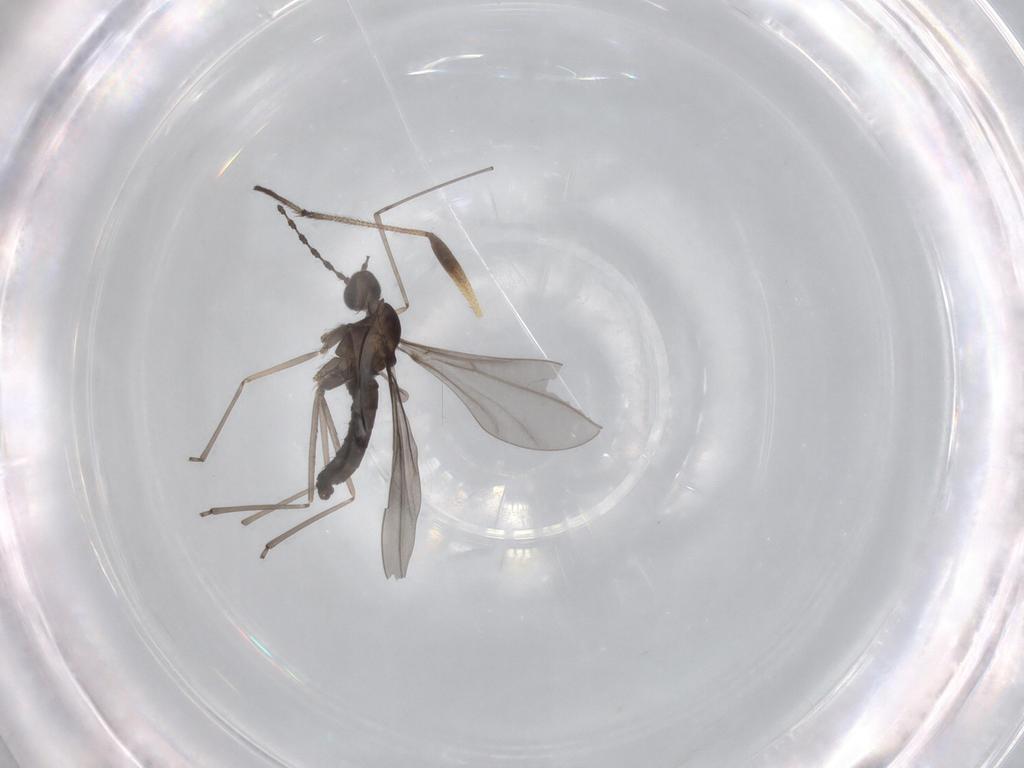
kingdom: Animalia
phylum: Arthropoda
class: Insecta
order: Diptera
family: Cecidomyiidae
